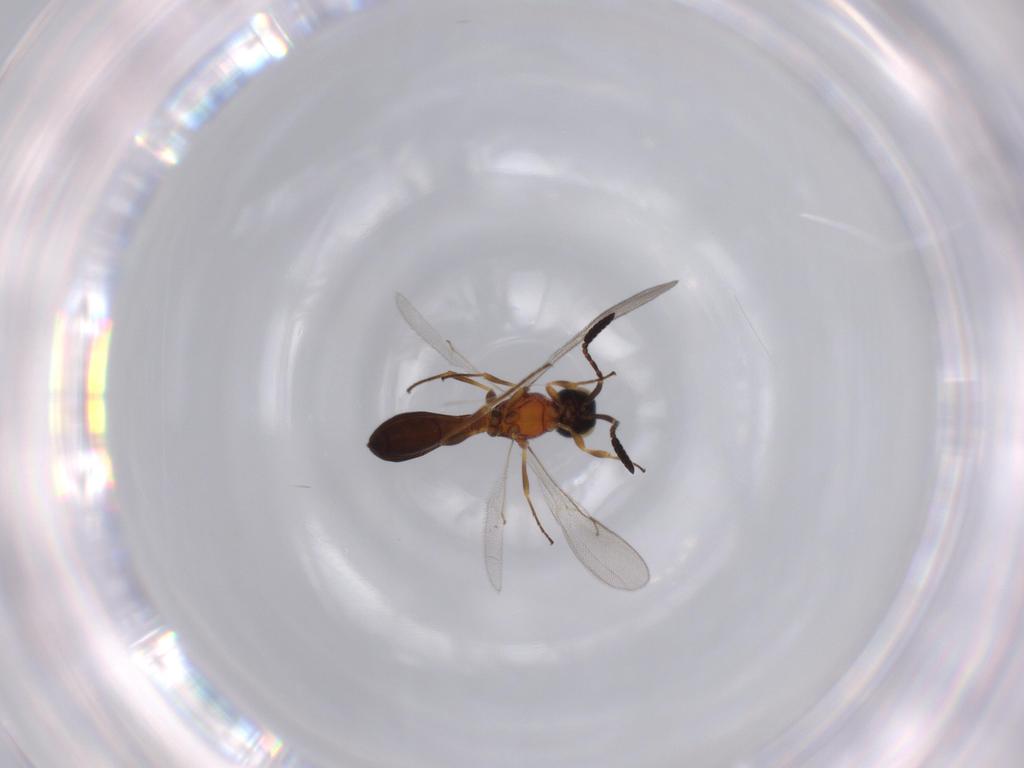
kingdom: Animalia
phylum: Arthropoda
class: Insecta
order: Hymenoptera
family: Scelionidae
